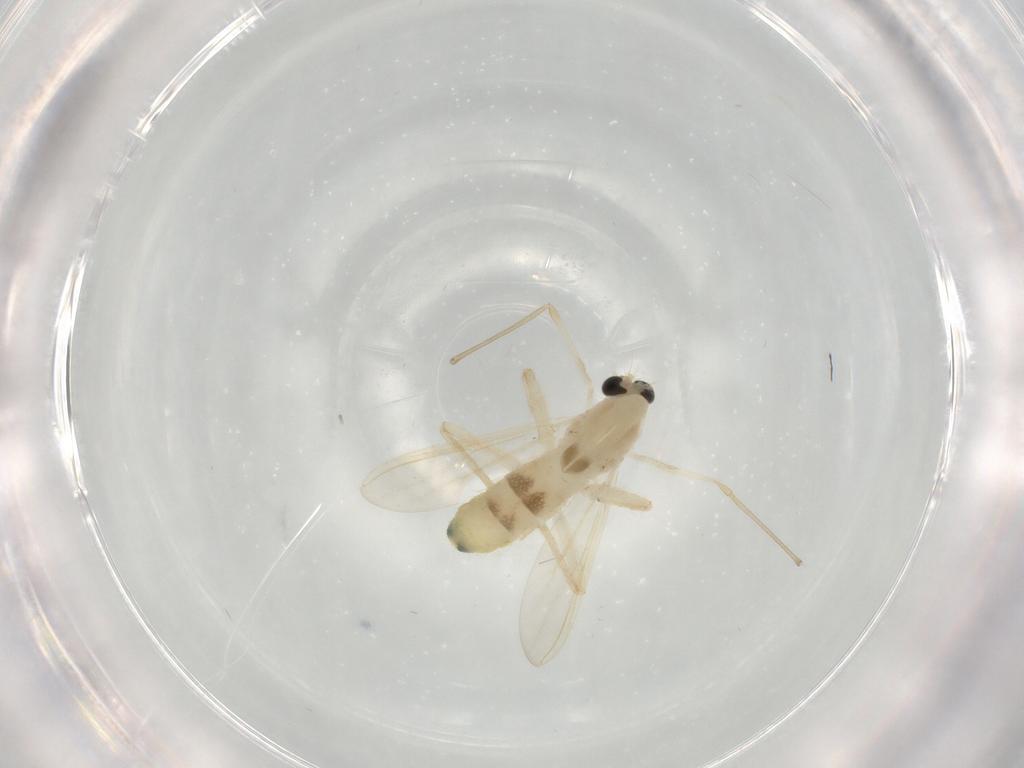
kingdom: Animalia
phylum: Arthropoda
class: Insecta
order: Diptera
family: Chironomidae
